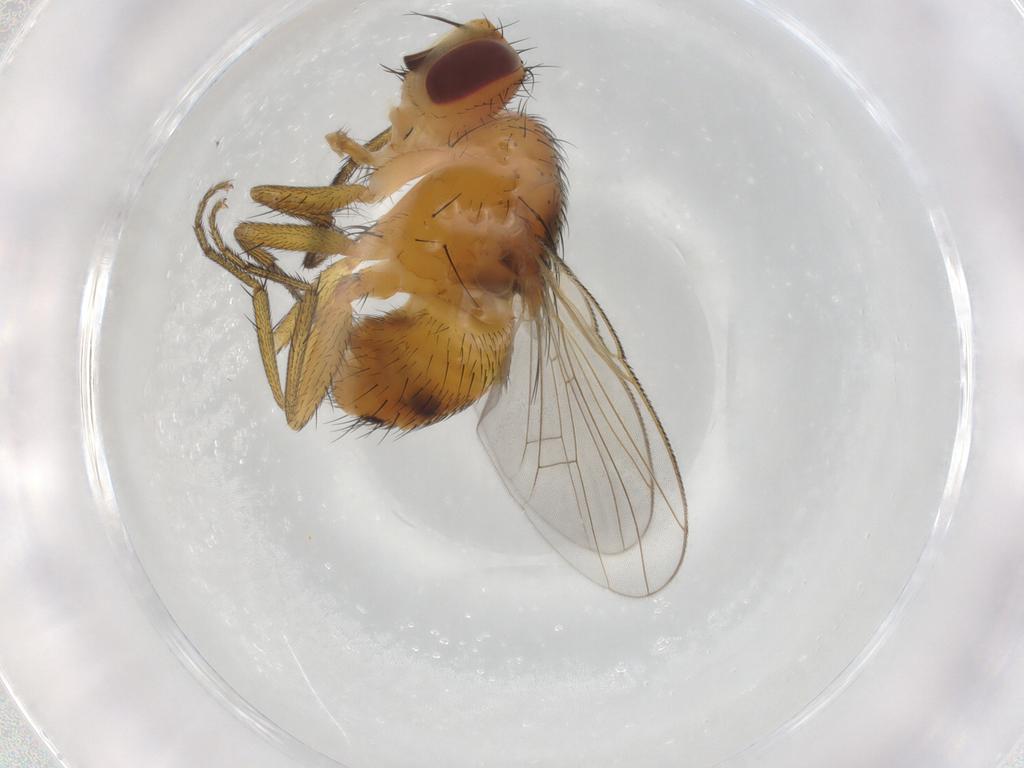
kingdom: Animalia
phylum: Arthropoda
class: Insecta
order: Diptera
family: Muscidae
